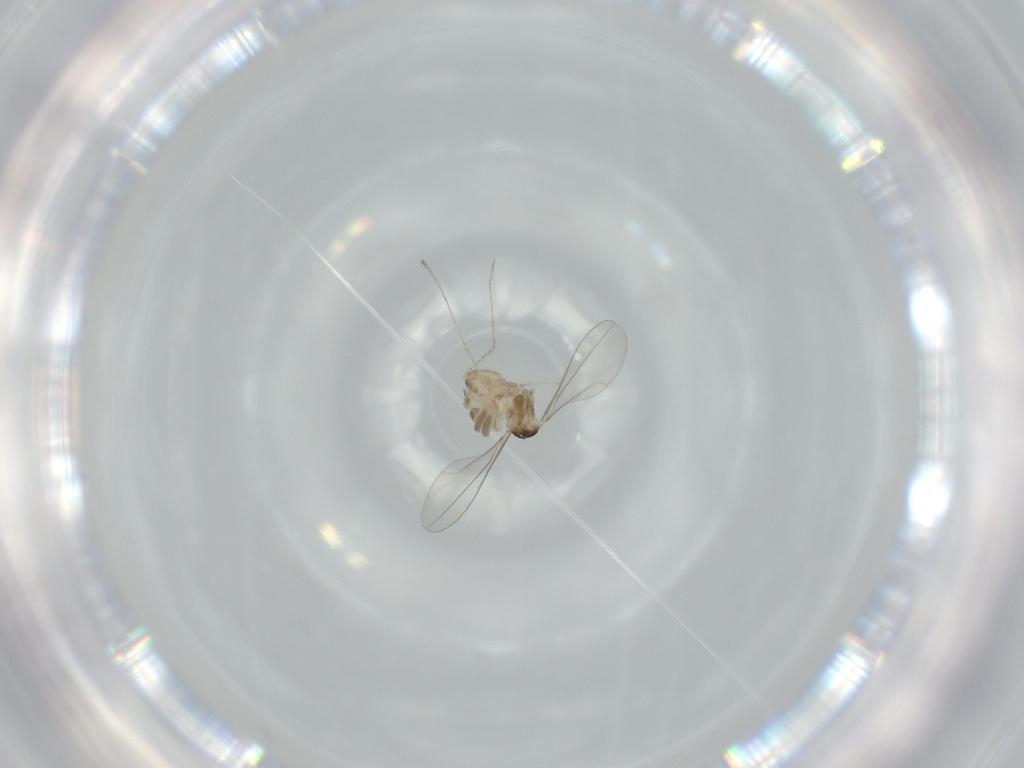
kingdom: Animalia
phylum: Arthropoda
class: Insecta
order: Diptera
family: Cecidomyiidae
